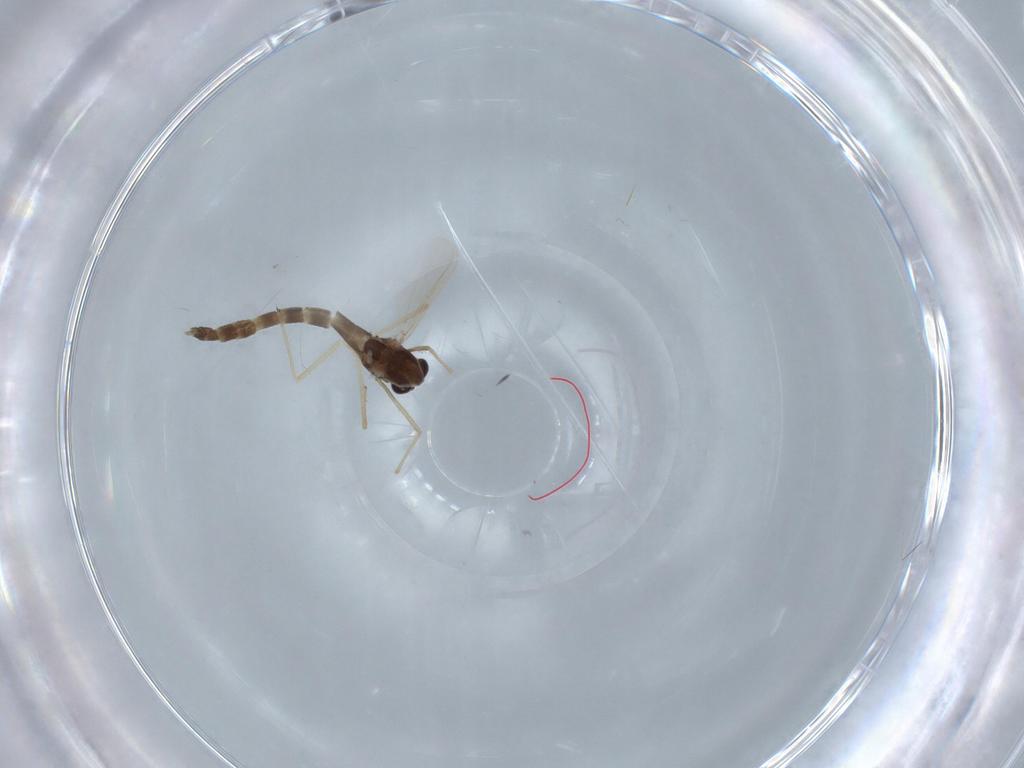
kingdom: Animalia
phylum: Arthropoda
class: Insecta
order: Diptera
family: Chironomidae
